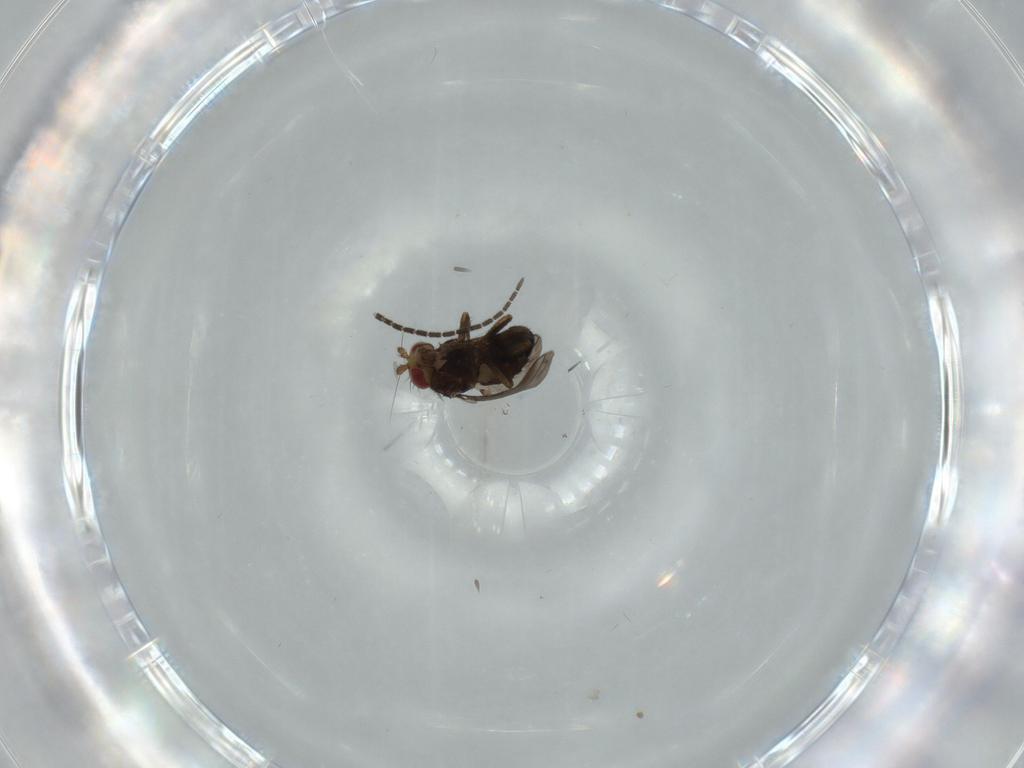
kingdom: Animalia
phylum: Arthropoda
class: Insecta
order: Diptera
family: Sciaridae
